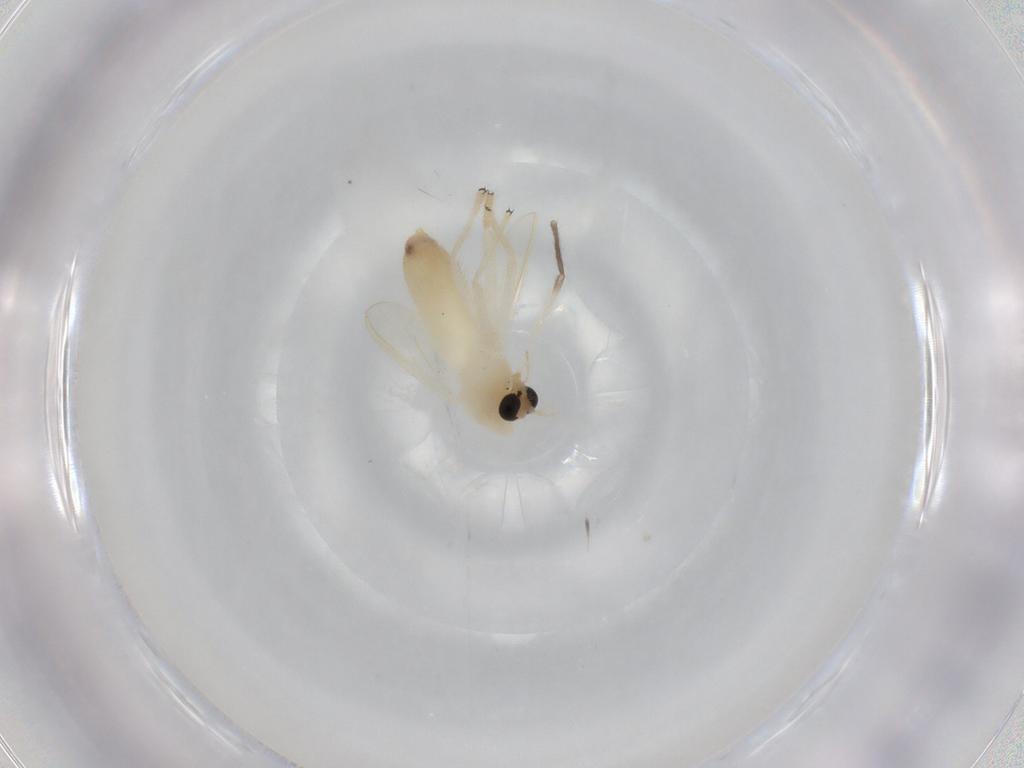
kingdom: Animalia
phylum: Arthropoda
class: Insecta
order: Diptera
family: Chironomidae
